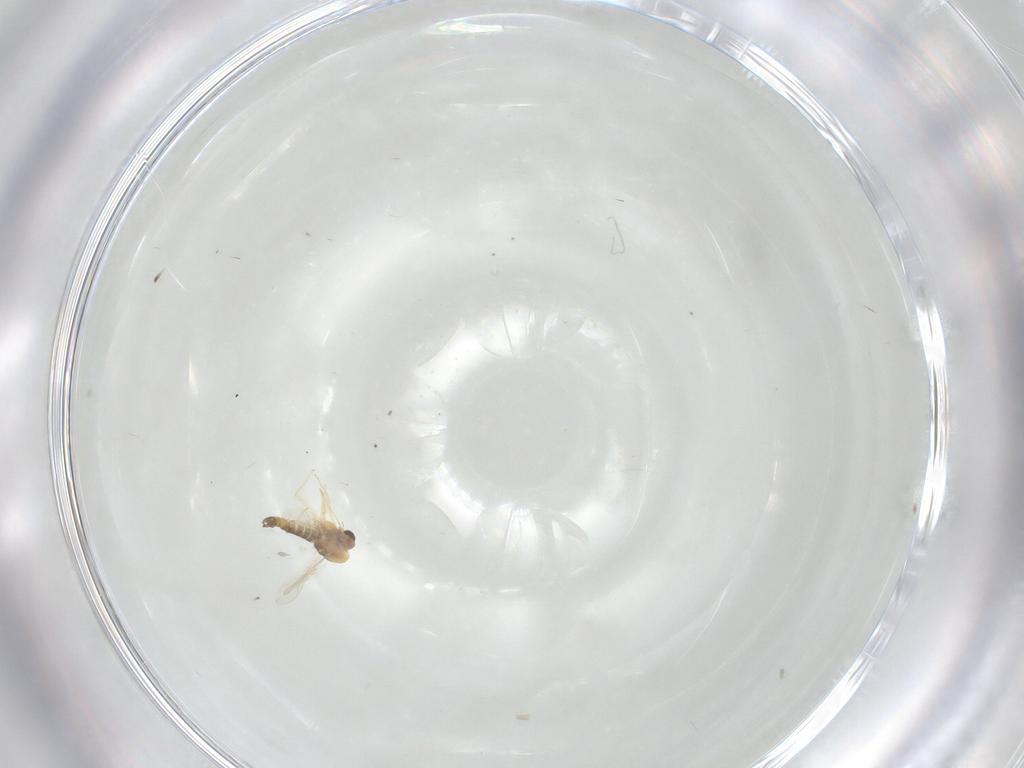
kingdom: Animalia
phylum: Arthropoda
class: Insecta
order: Diptera
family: Chironomidae
